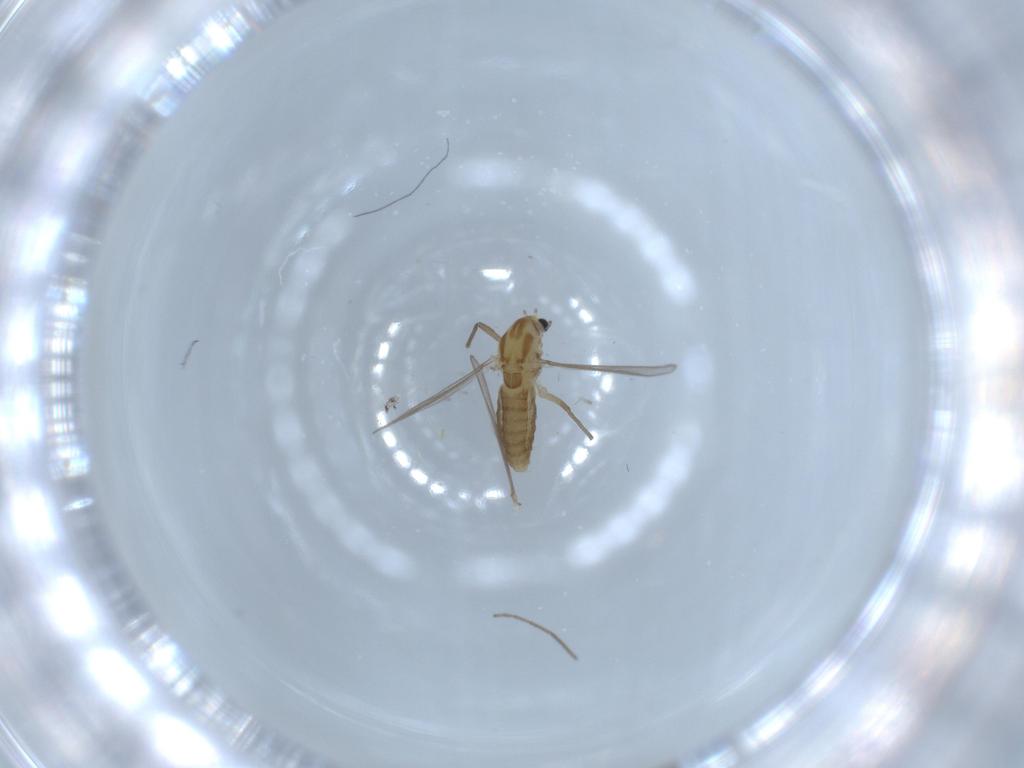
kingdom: Animalia
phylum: Arthropoda
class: Insecta
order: Diptera
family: Chironomidae
